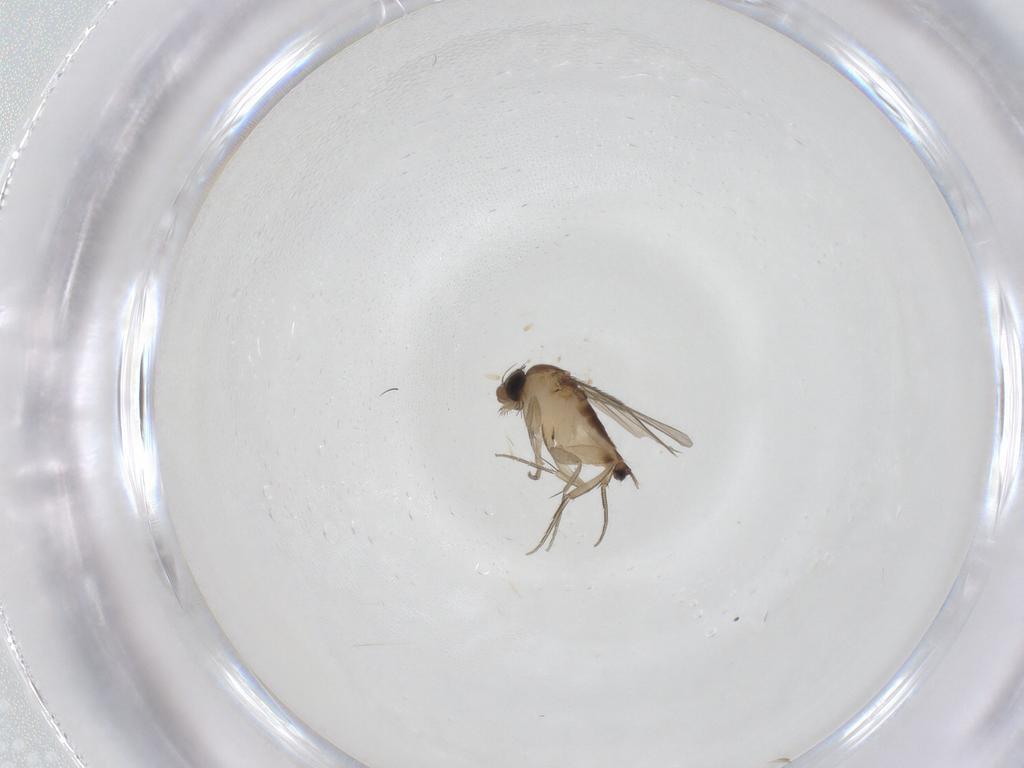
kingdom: Animalia
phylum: Arthropoda
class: Insecta
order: Diptera
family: Phoridae
